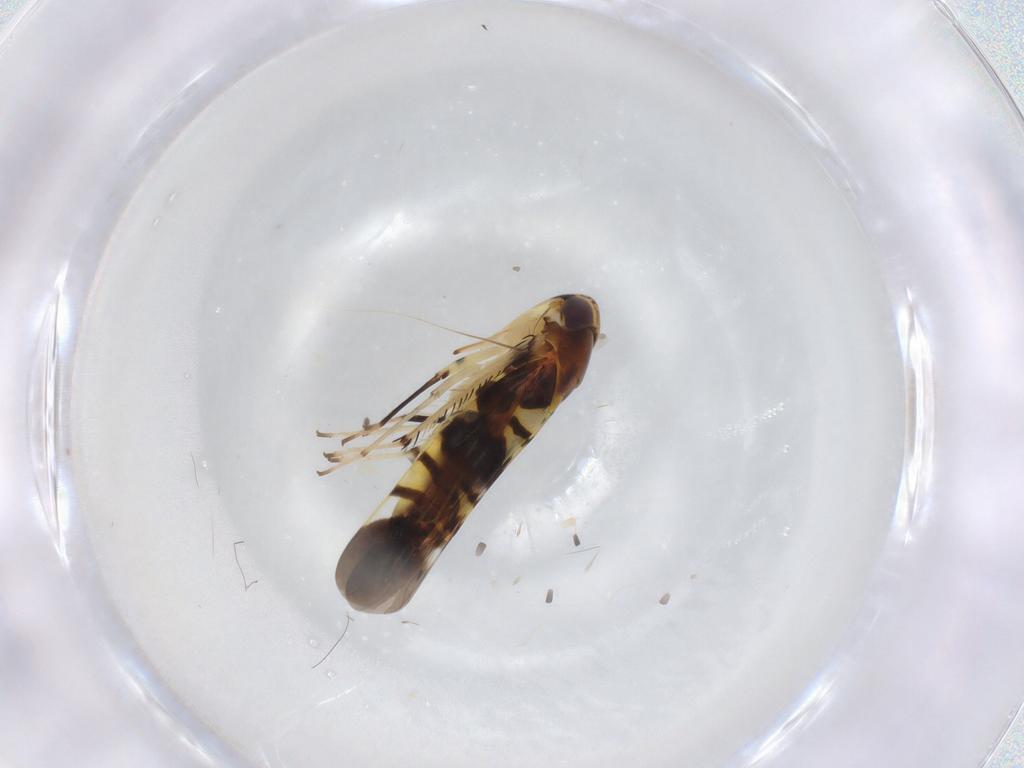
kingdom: Animalia
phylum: Arthropoda
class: Insecta
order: Hemiptera
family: Cicadellidae
